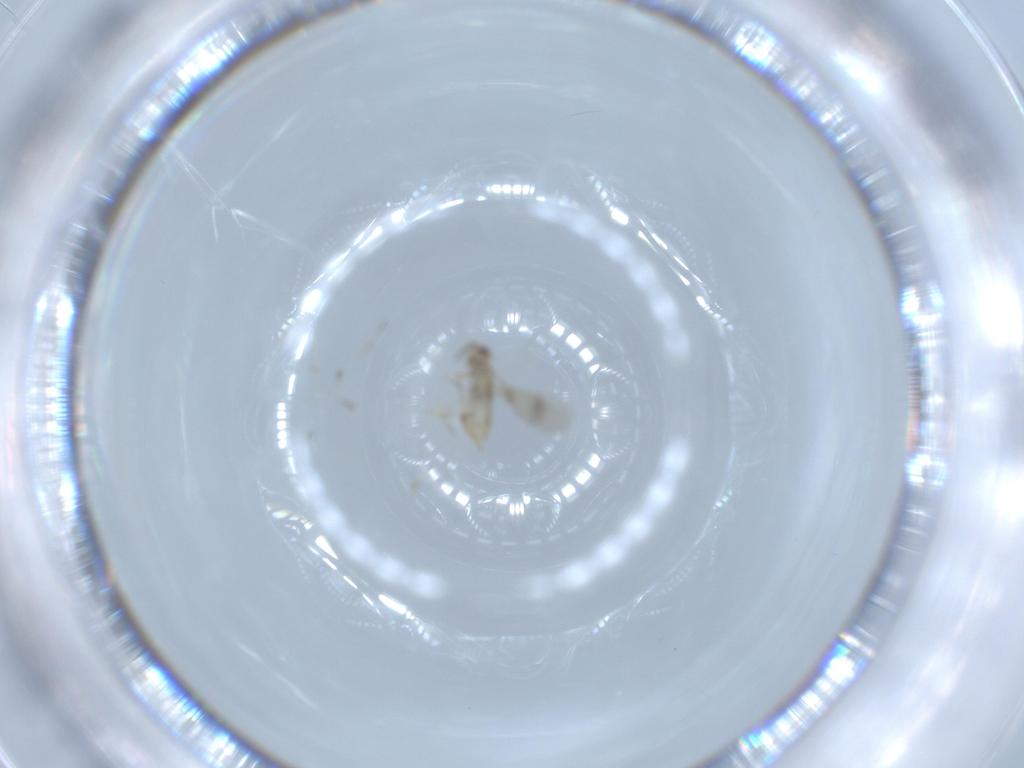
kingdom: Animalia
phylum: Arthropoda
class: Insecta
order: Hymenoptera
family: Aphelinidae
